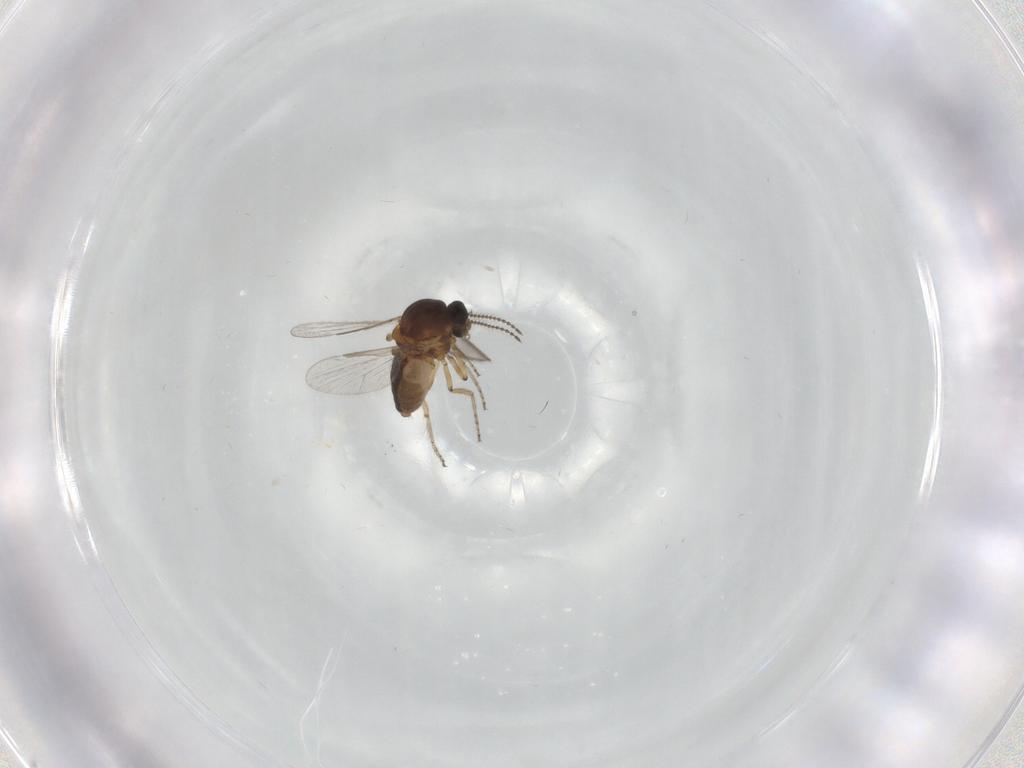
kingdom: Animalia
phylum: Arthropoda
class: Insecta
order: Diptera
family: Ceratopogonidae
